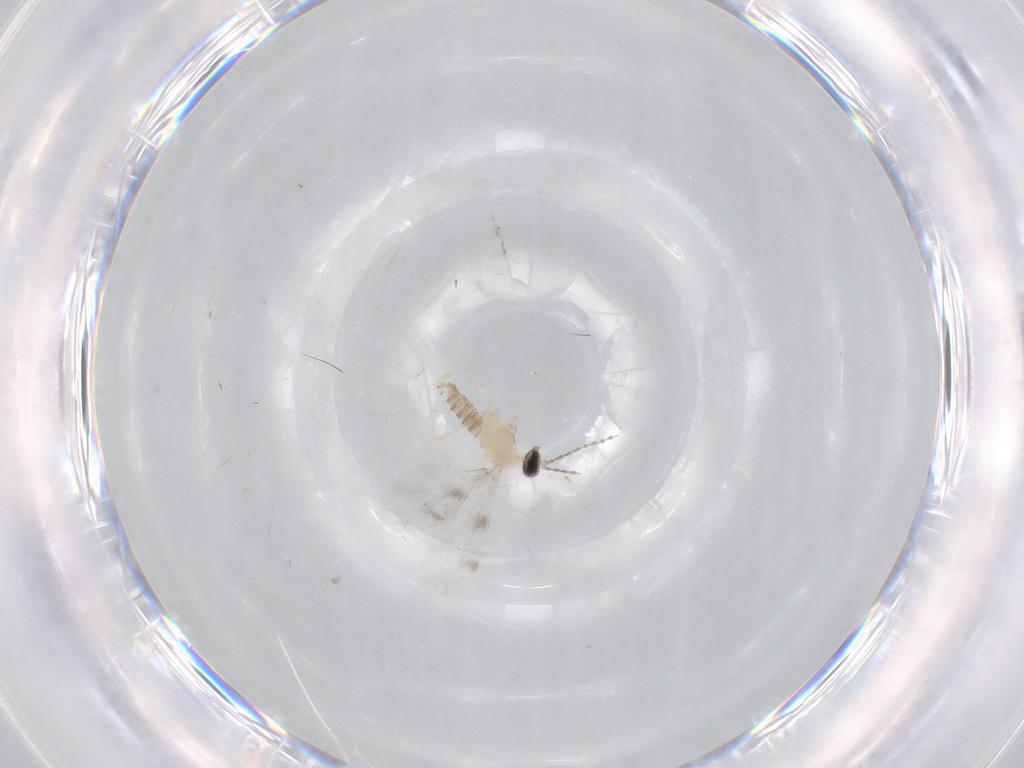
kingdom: Animalia
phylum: Arthropoda
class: Insecta
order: Diptera
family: Cecidomyiidae
